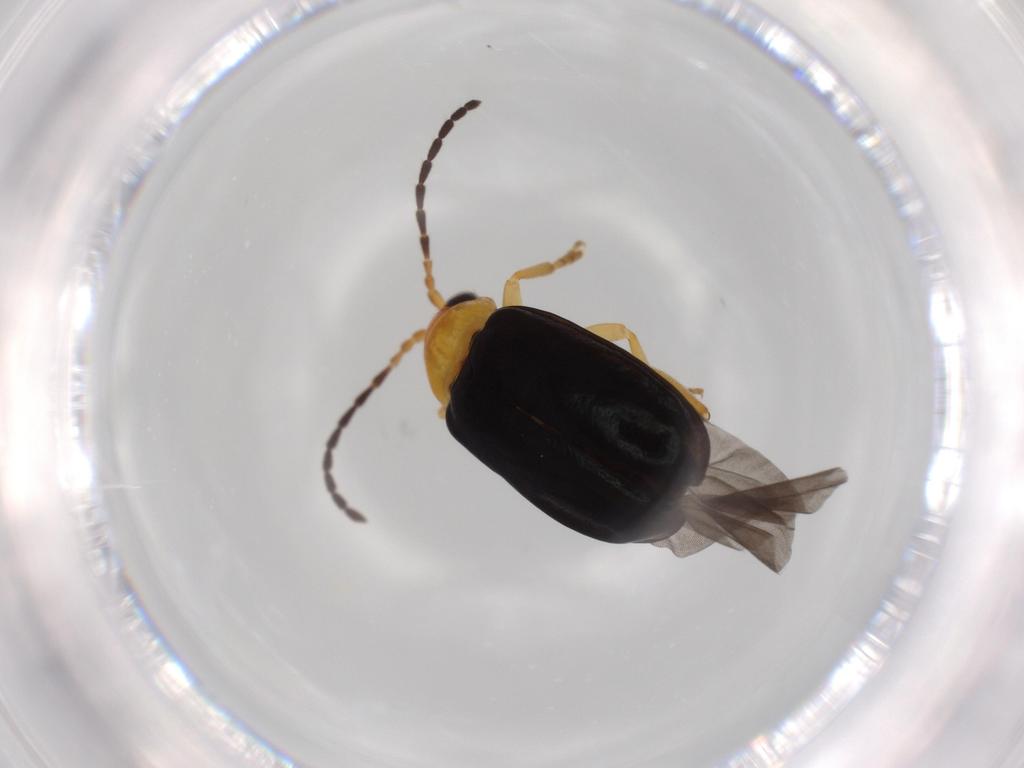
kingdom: Animalia
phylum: Arthropoda
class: Insecta
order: Coleoptera
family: Chrysomelidae
